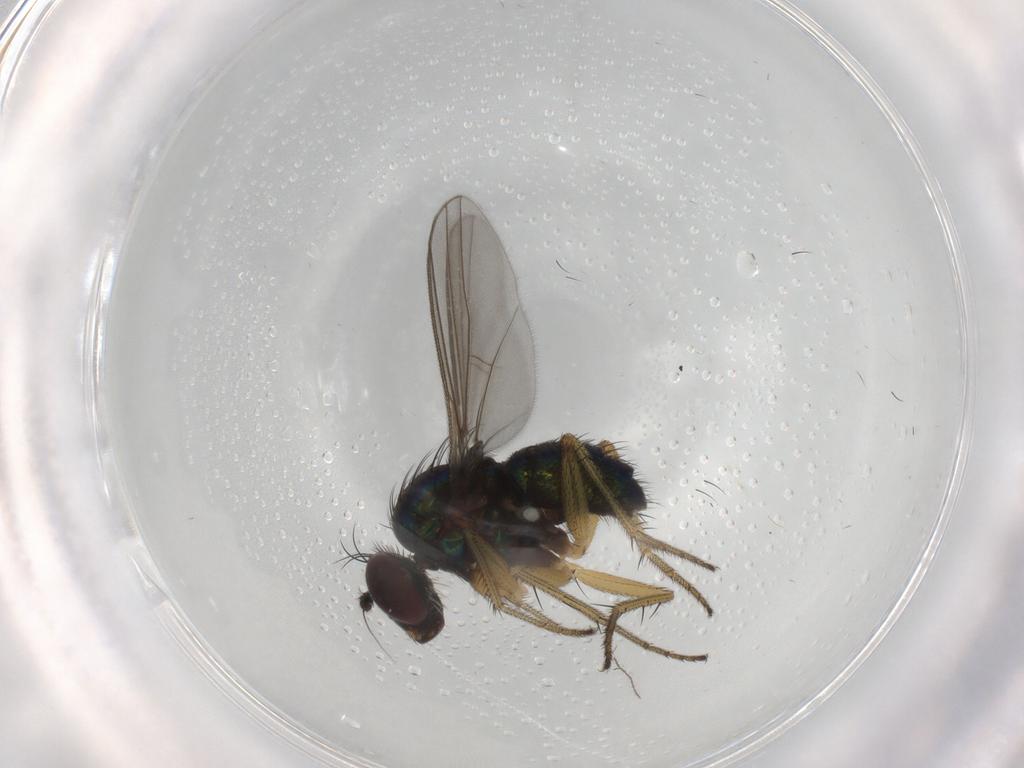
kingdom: Animalia
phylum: Arthropoda
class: Insecta
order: Diptera
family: Dolichopodidae
